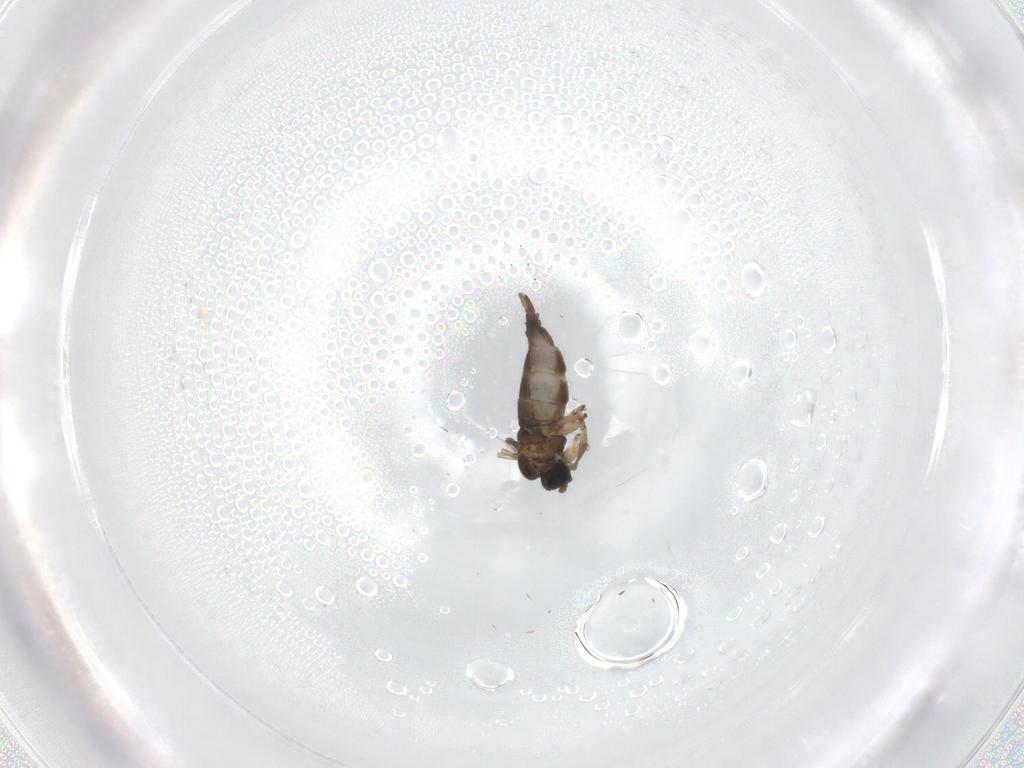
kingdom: Animalia
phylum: Arthropoda
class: Insecta
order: Diptera
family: Sciaridae
